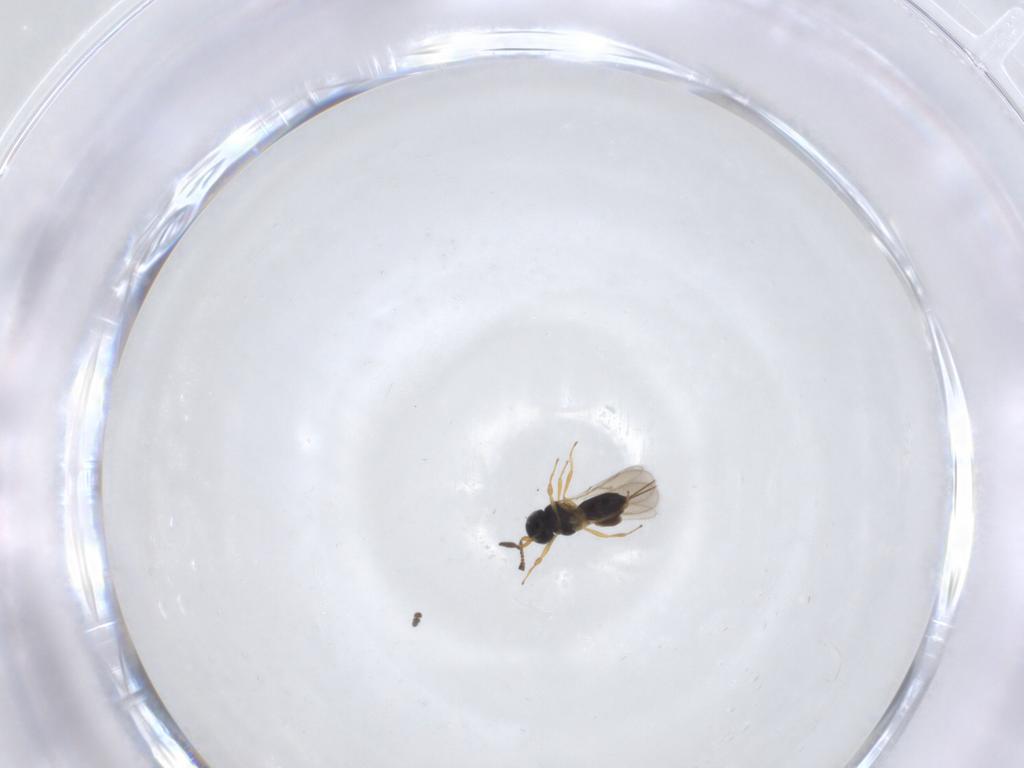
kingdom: Animalia
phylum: Arthropoda
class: Insecta
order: Hymenoptera
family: Scelionidae
